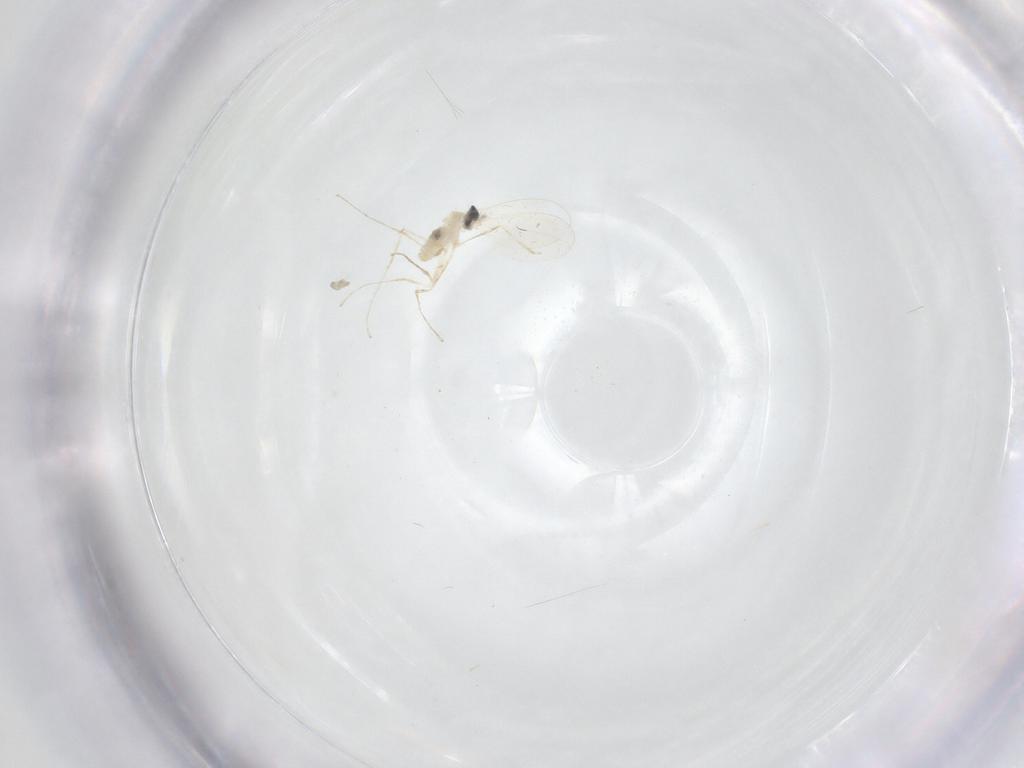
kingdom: Animalia
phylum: Arthropoda
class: Insecta
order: Diptera
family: Cecidomyiidae
